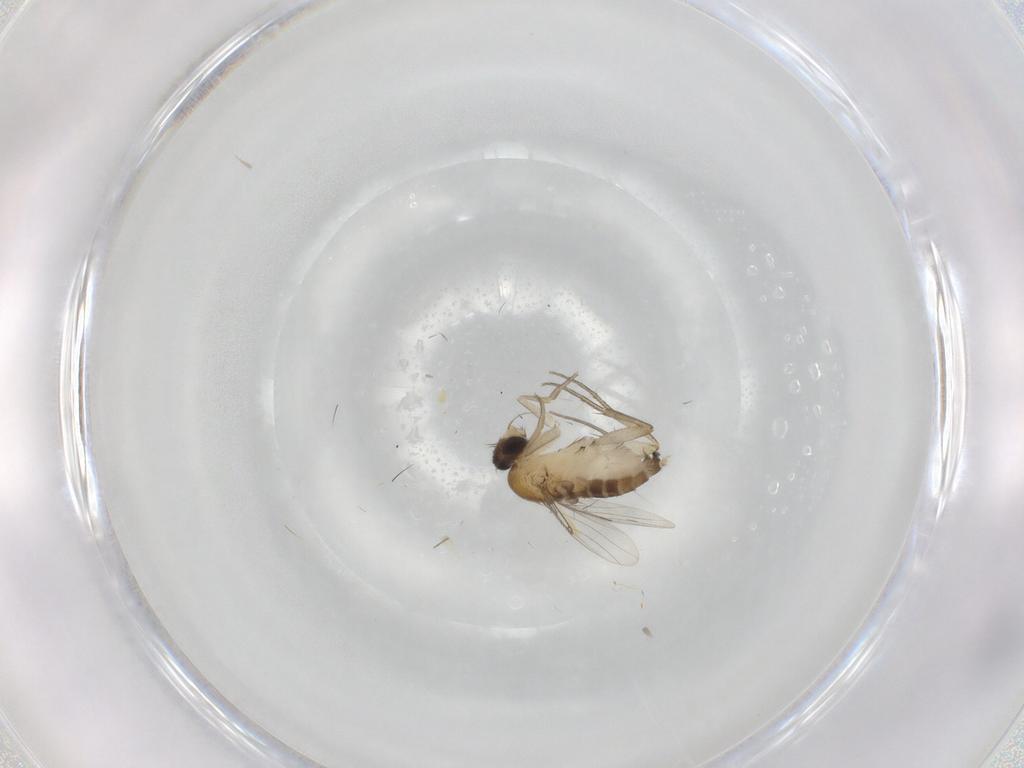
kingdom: Animalia
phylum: Arthropoda
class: Insecta
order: Diptera
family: Phoridae
